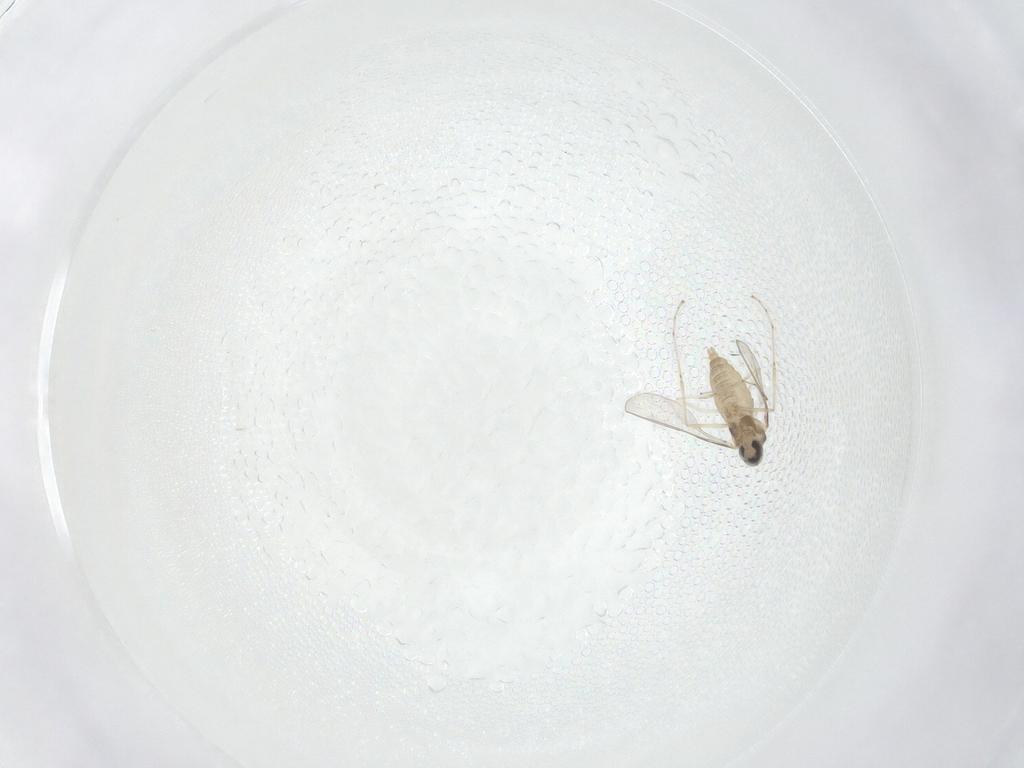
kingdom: Animalia
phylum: Arthropoda
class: Insecta
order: Diptera
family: Cecidomyiidae
